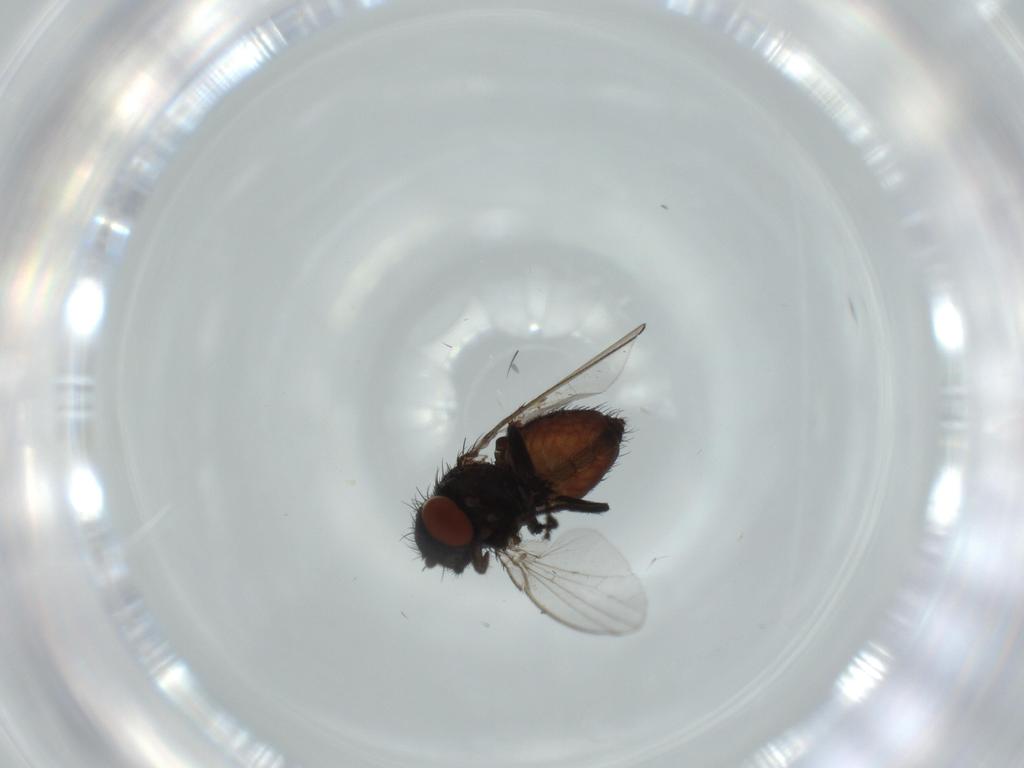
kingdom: Animalia
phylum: Arthropoda
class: Insecta
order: Diptera
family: Milichiidae
